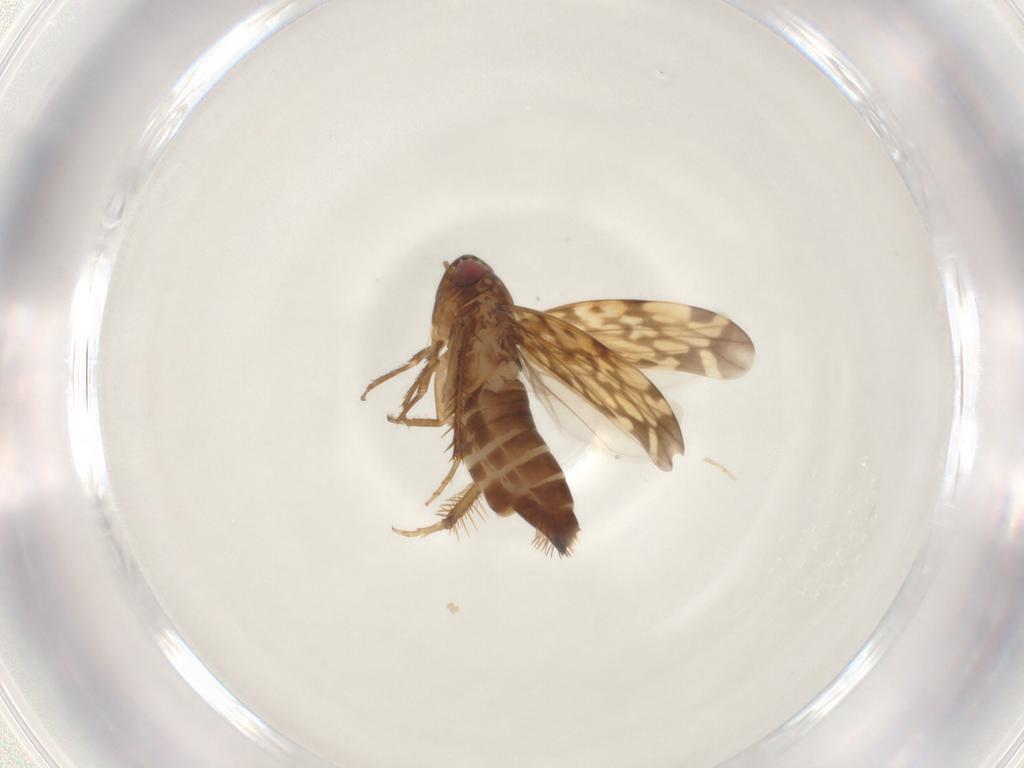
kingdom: Animalia
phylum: Arthropoda
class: Insecta
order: Hemiptera
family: Cicadellidae
